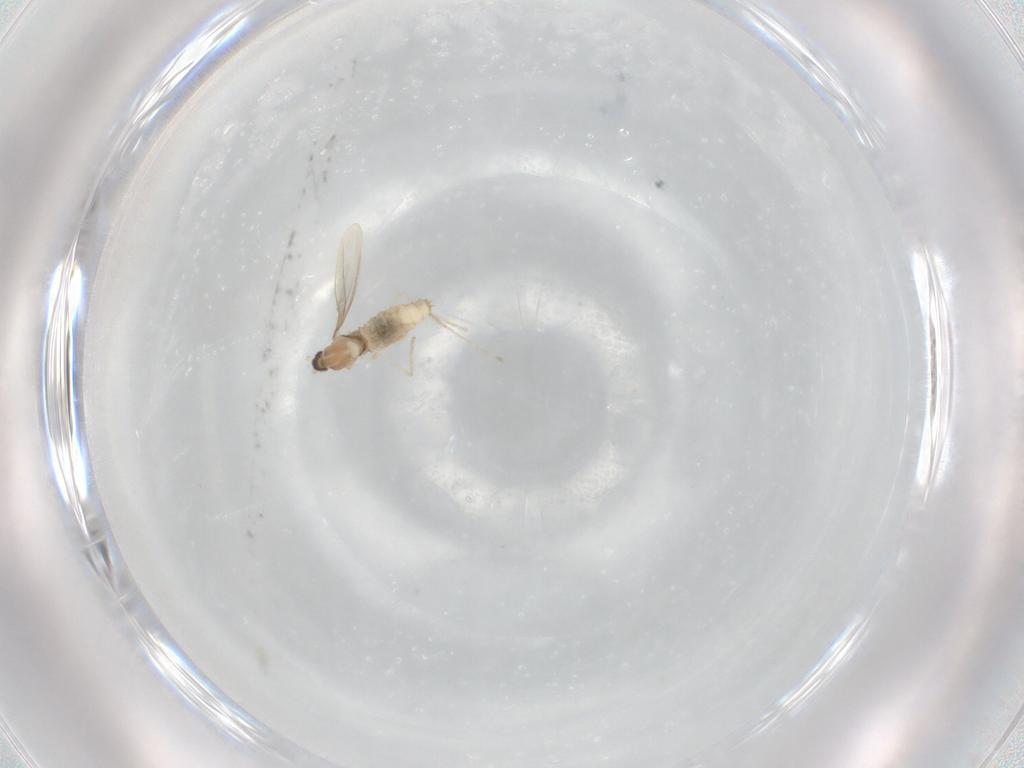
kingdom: Animalia
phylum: Arthropoda
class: Insecta
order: Diptera
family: Cecidomyiidae
